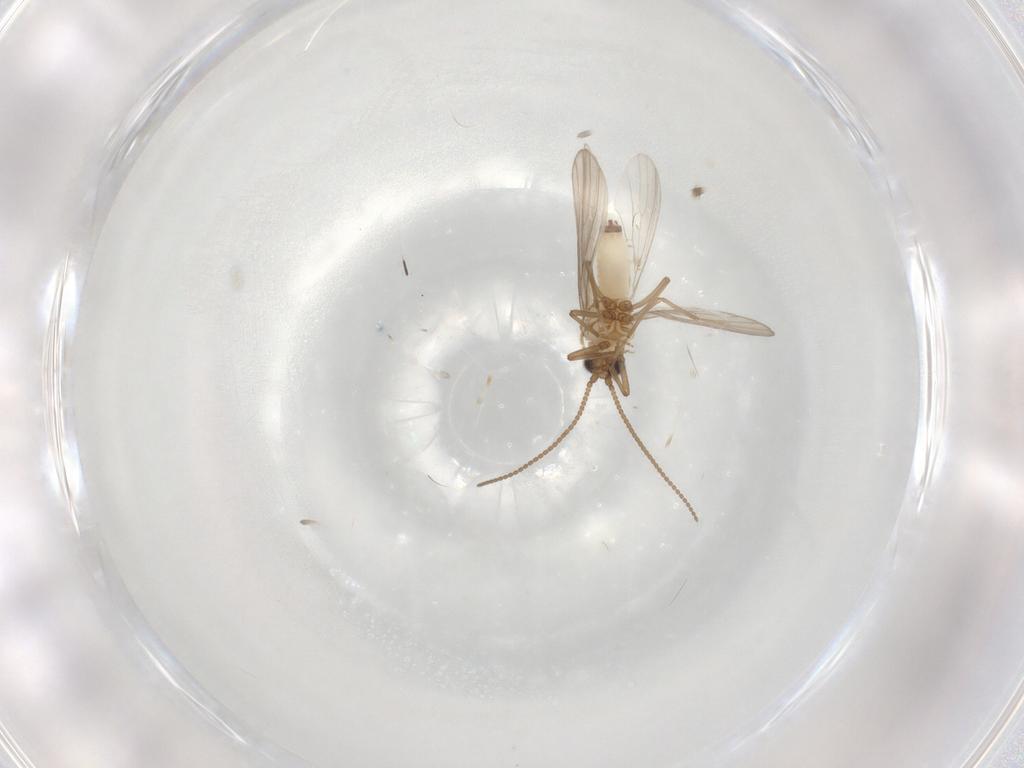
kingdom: Animalia
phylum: Arthropoda
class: Insecta
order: Neuroptera
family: Coniopterygidae
